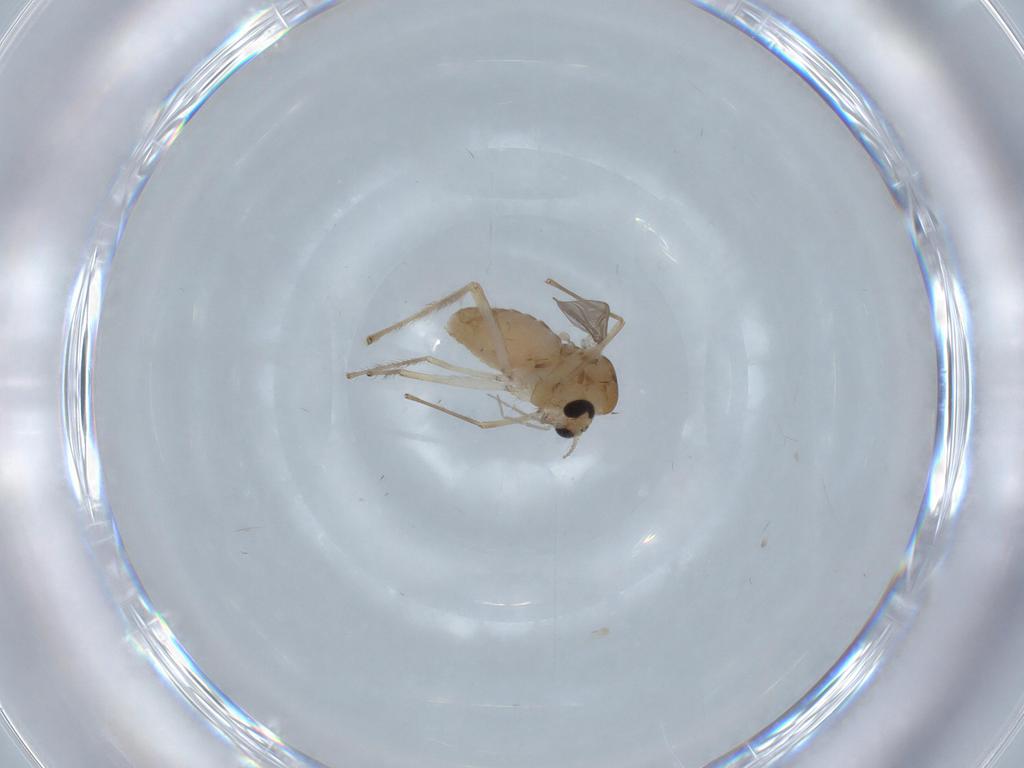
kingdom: Animalia
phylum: Arthropoda
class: Insecta
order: Diptera
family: Chironomidae
